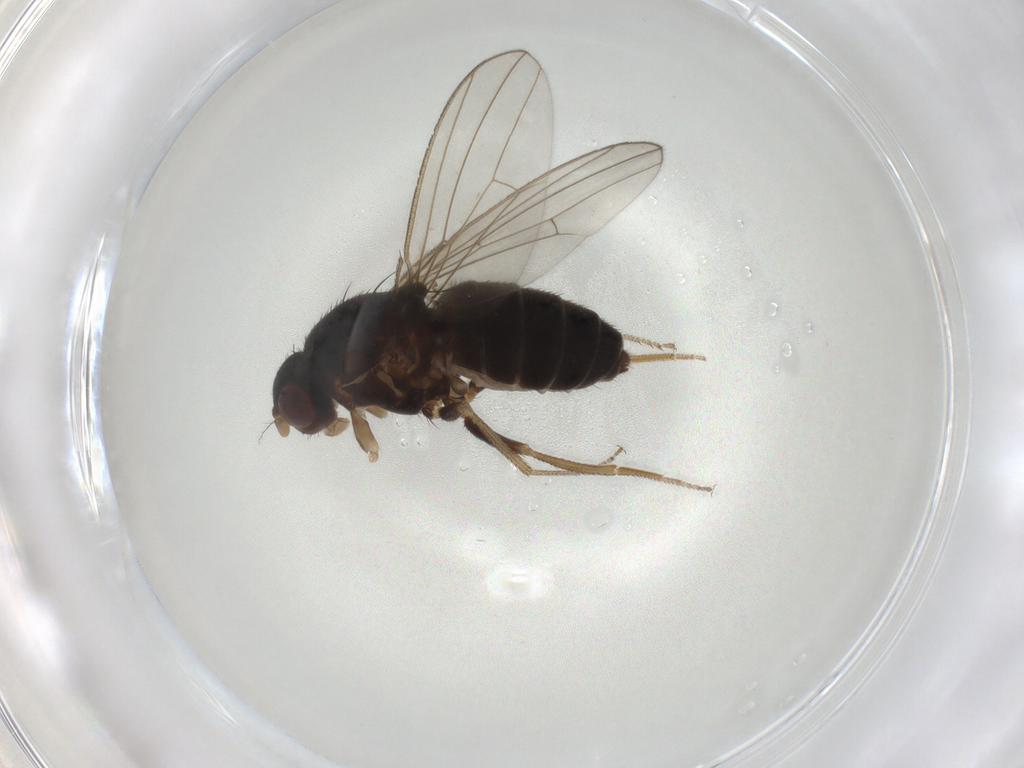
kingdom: Animalia
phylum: Arthropoda
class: Insecta
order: Diptera
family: Drosophilidae
